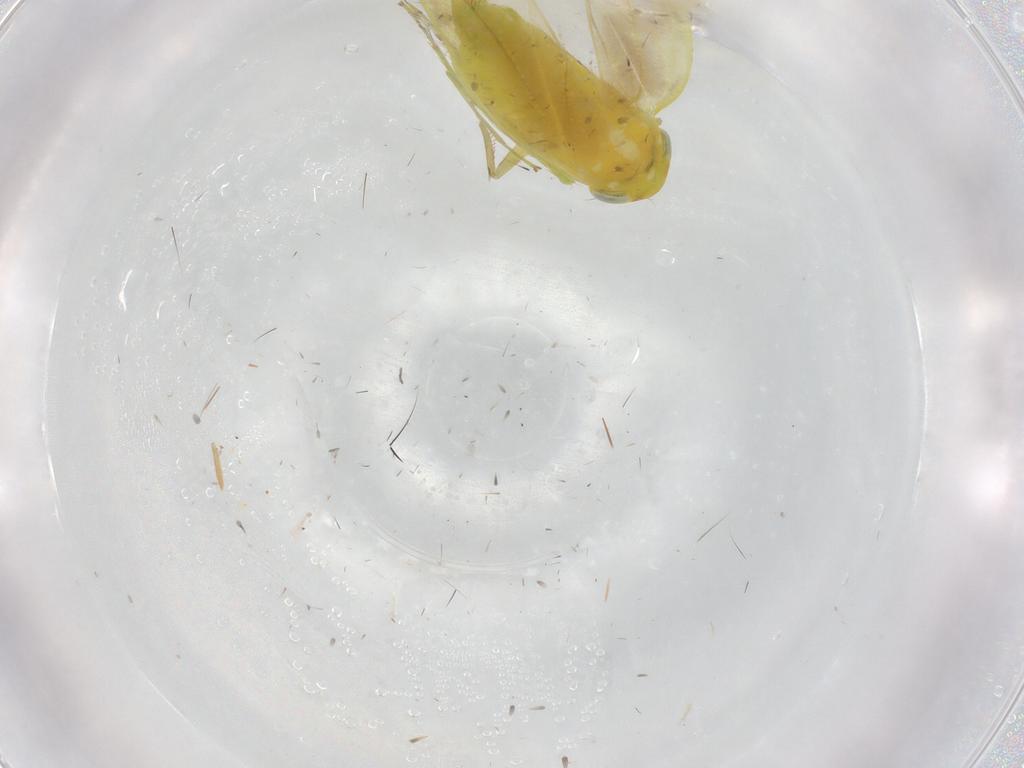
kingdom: Animalia
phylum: Arthropoda
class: Insecta
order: Hemiptera
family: Cicadellidae
